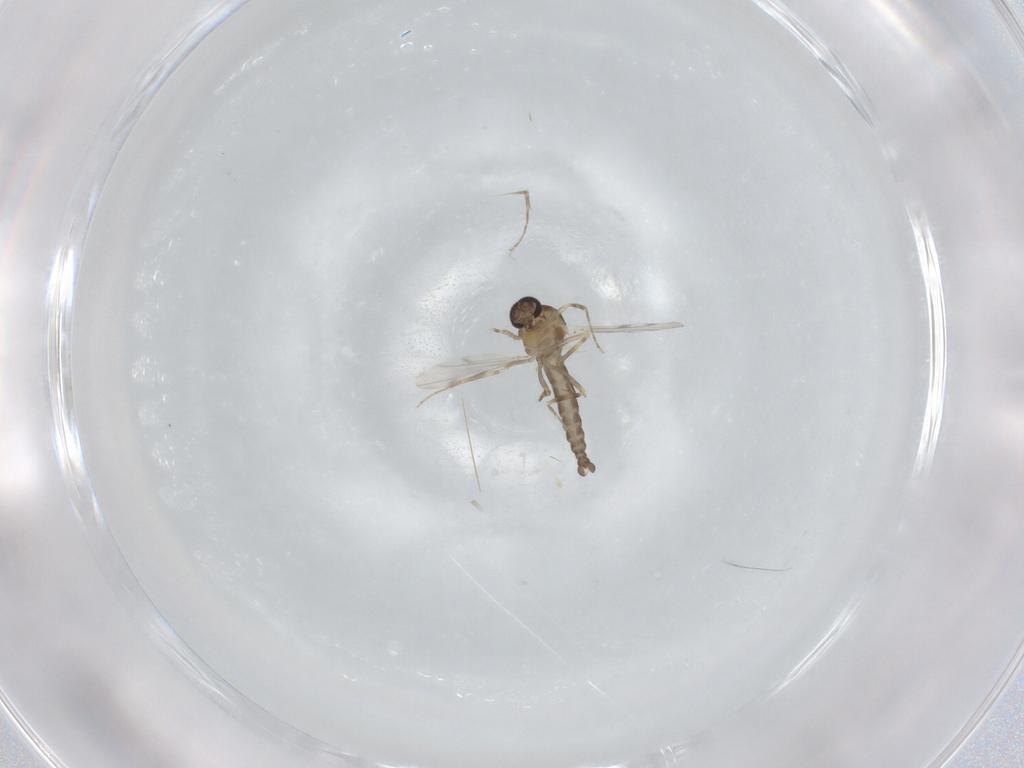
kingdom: Animalia
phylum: Arthropoda
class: Insecta
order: Diptera
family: Ceratopogonidae
